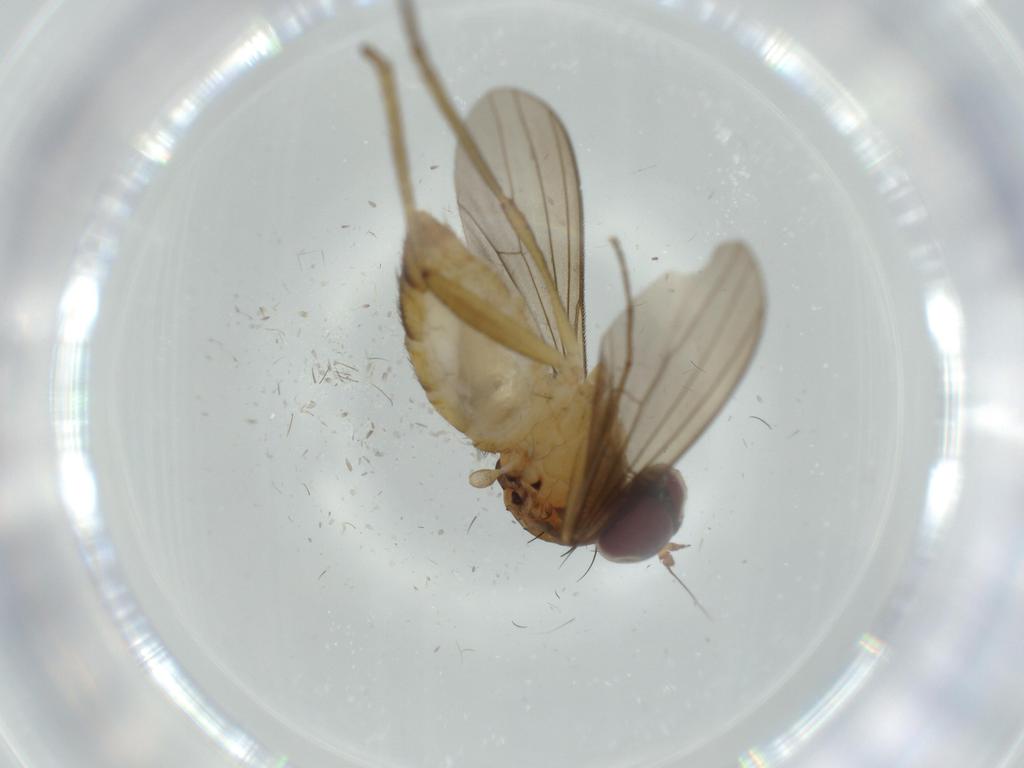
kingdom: Animalia
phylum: Arthropoda
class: Insecta
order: Diptera
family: Dolichopodidae
